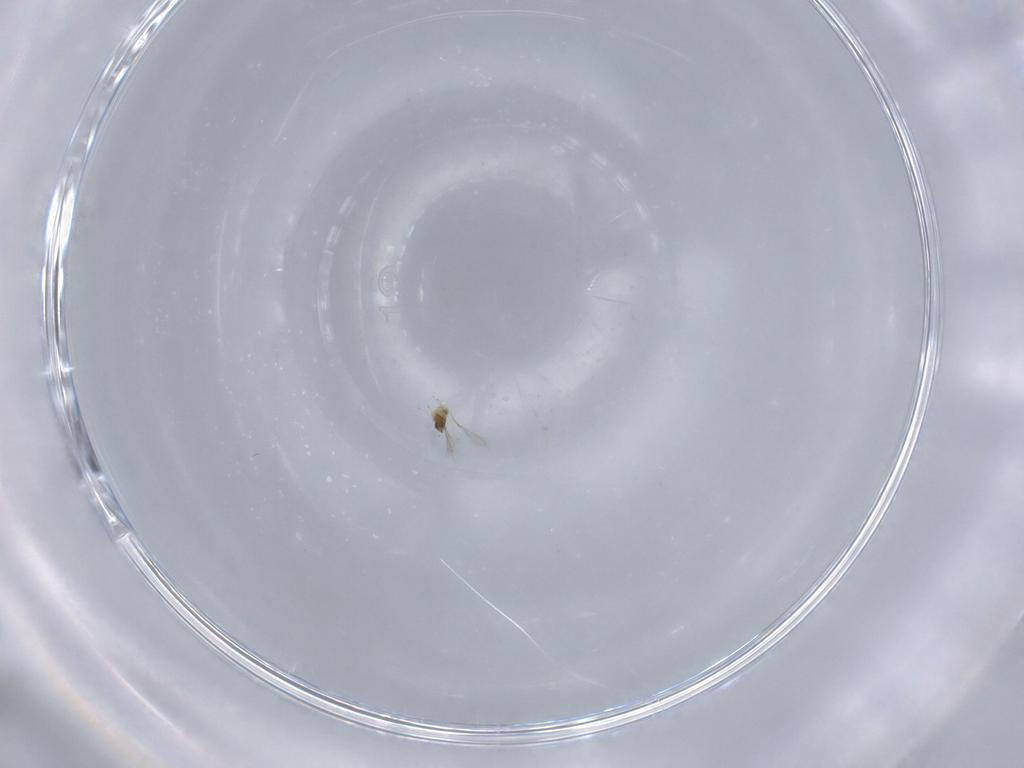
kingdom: Animalia
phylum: Arthropoda
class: Insecta
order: Hymenoptera
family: Mymaridae
